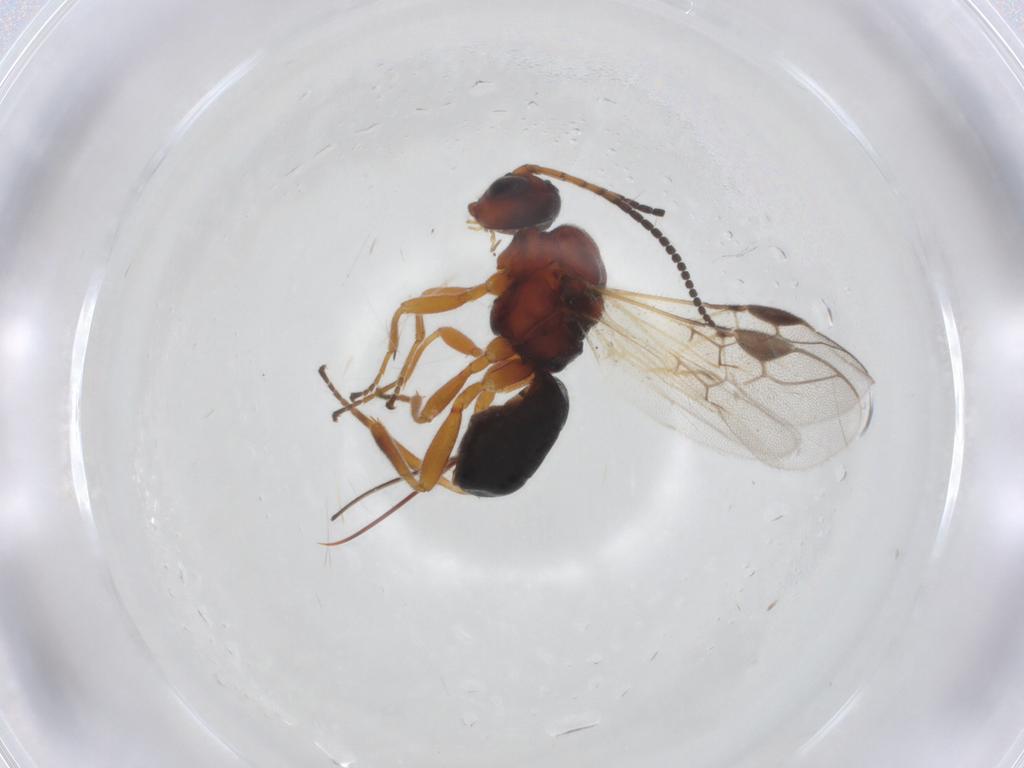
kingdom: Animalia
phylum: Arthropoda
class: Insecta
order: Hymenoptera
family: Braconidae
